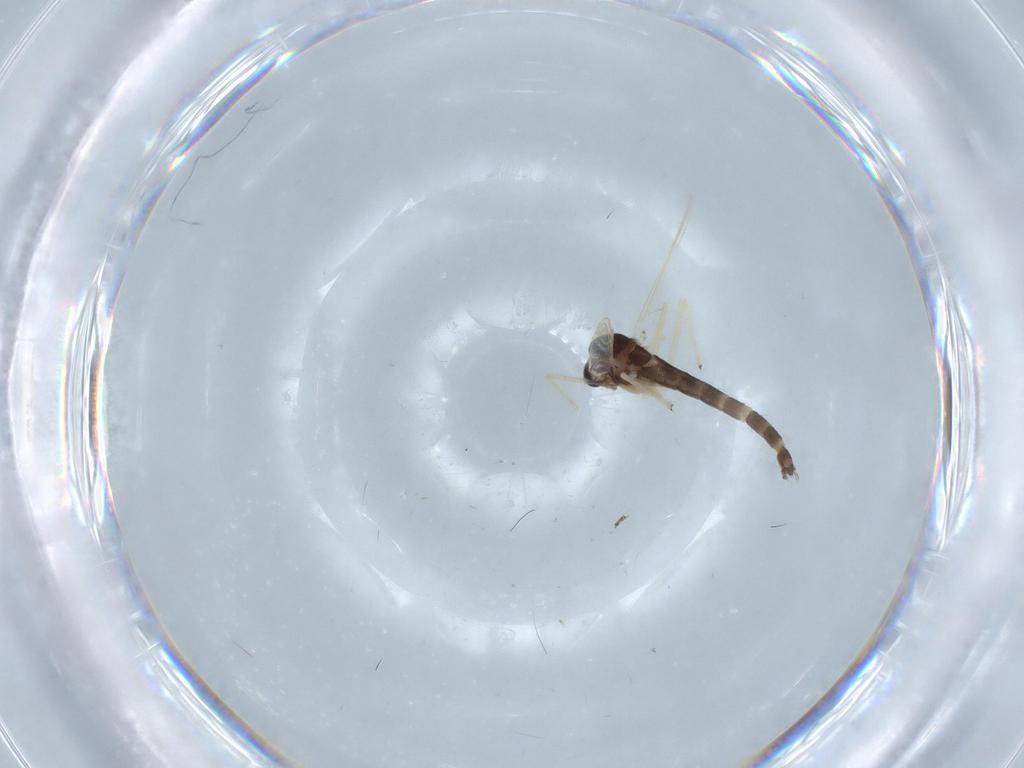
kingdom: Animalia
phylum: Arthropoda
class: Insecta
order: Diptera
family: Chironomidae
